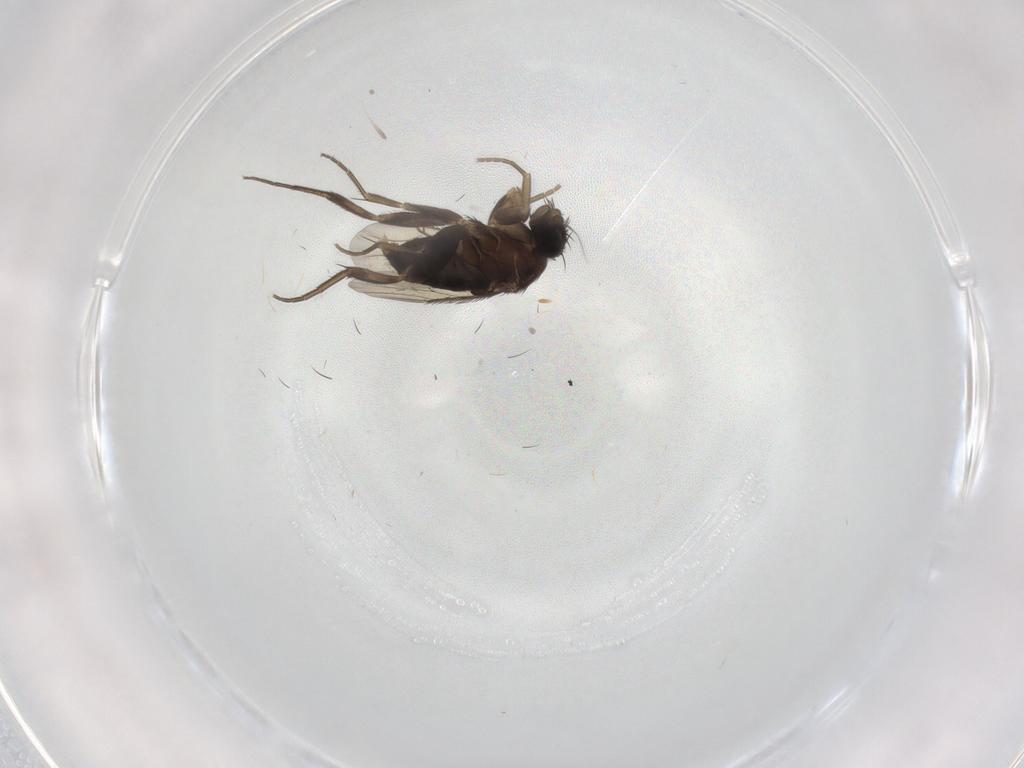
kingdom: Animalia
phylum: Arthropoda
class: Insecta
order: Diptera
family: Phoridae
